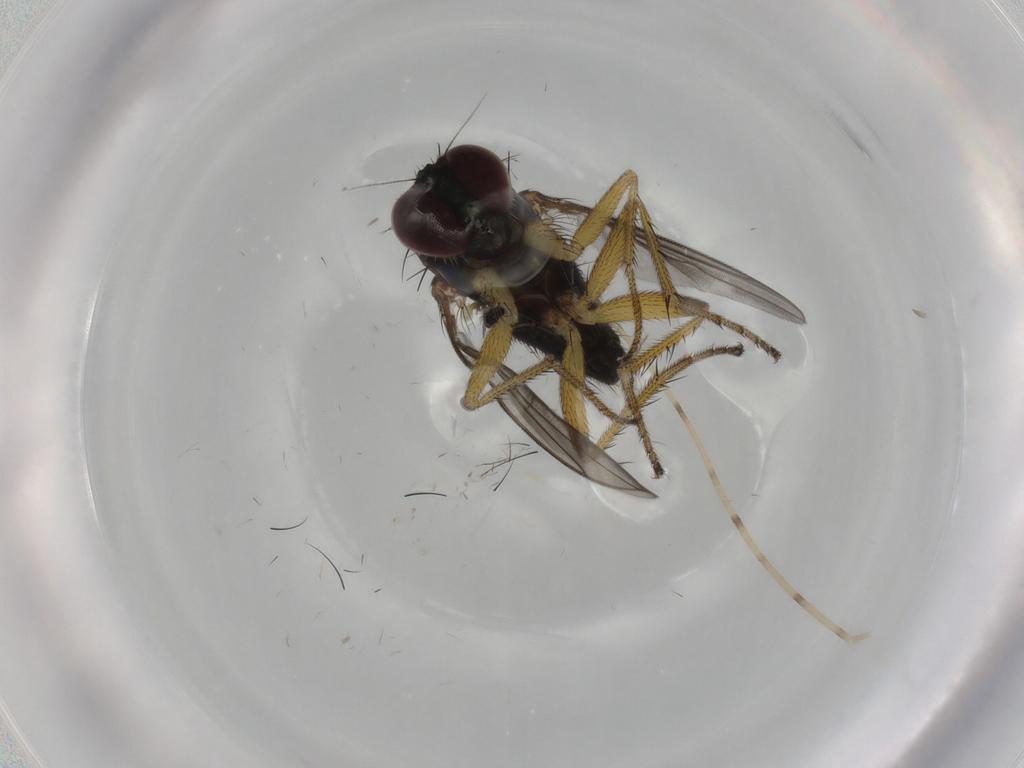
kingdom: Animalia
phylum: Arthropoda
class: Insecta
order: Diptera
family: Dolichopodidae
